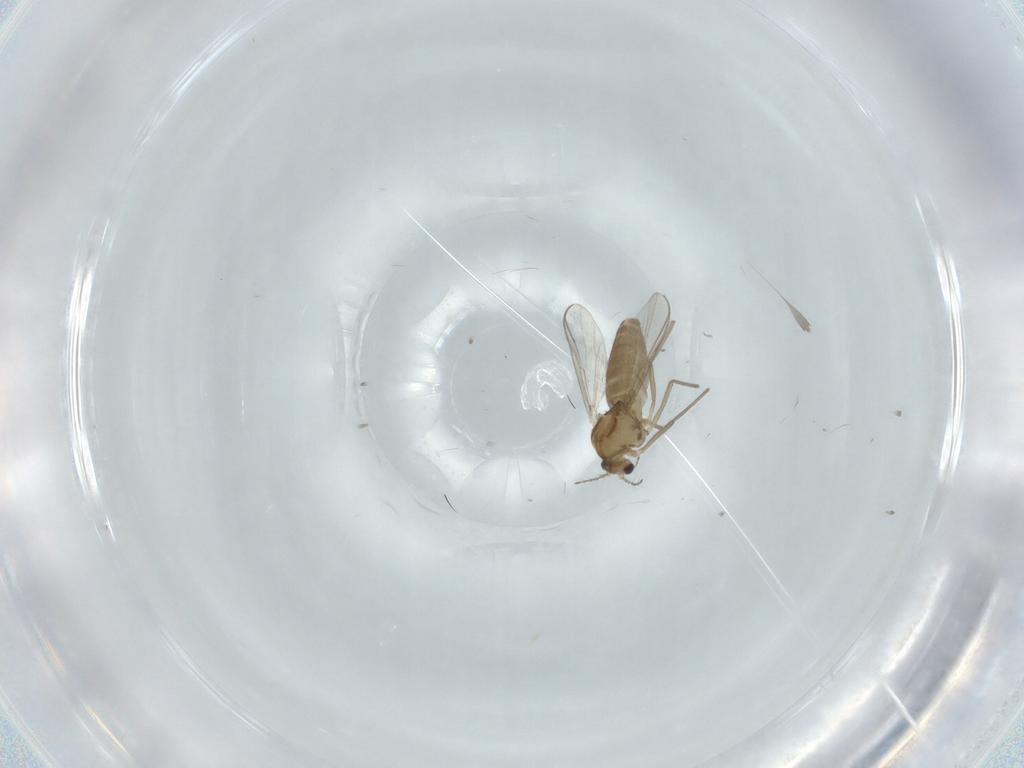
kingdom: Animalia
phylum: Arthropoda
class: Insecta
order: Diptera
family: Chironomidae
